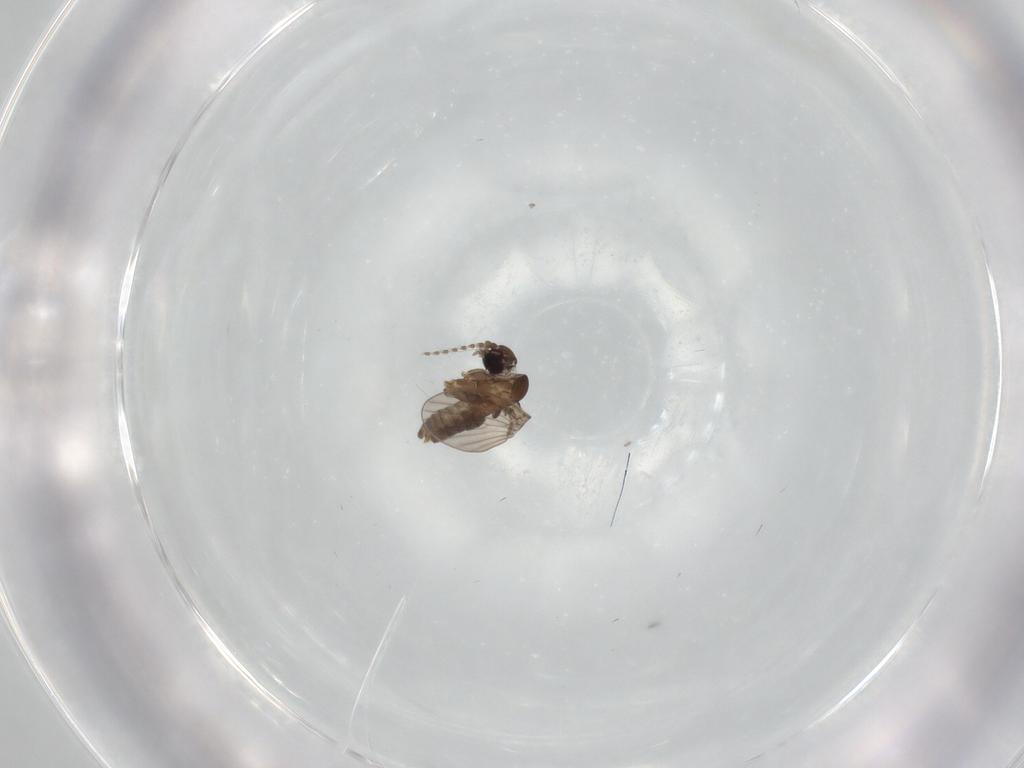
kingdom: Animalia
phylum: Arthropoda
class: Insecta
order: Diptera
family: Psychodidae
